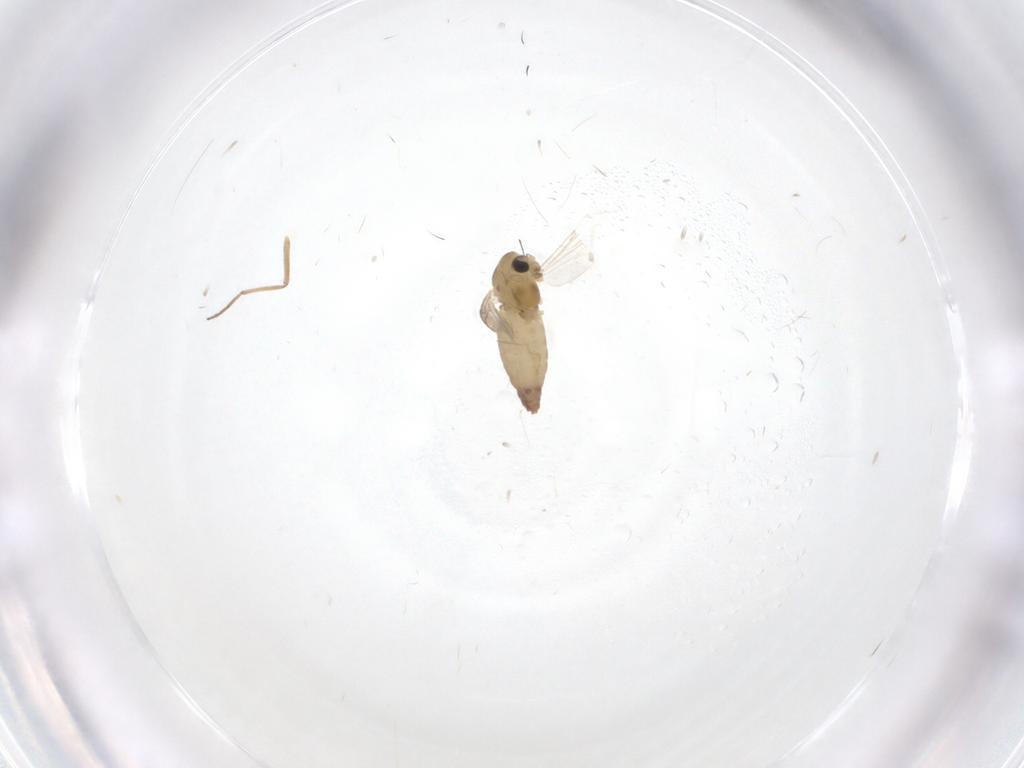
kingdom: Animalia
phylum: Arthropoda
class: Insecta
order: Diptera
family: Chironomidae
